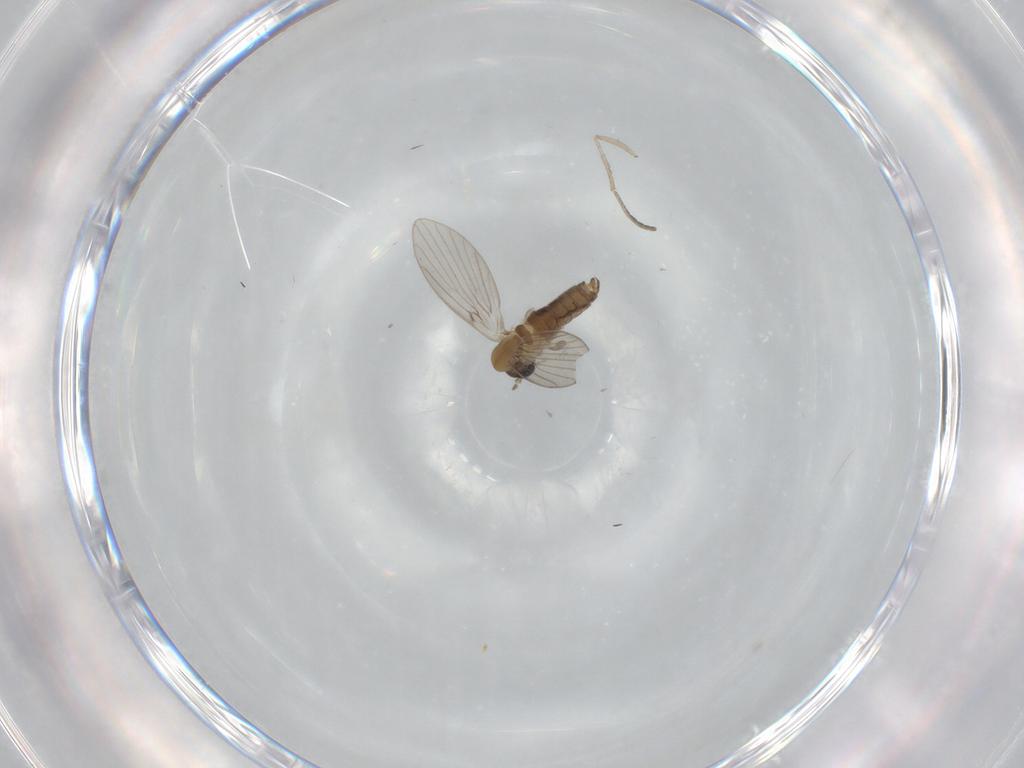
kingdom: Animalia
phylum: Arthropoda
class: Insecta
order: Diptera
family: Psychodidae
